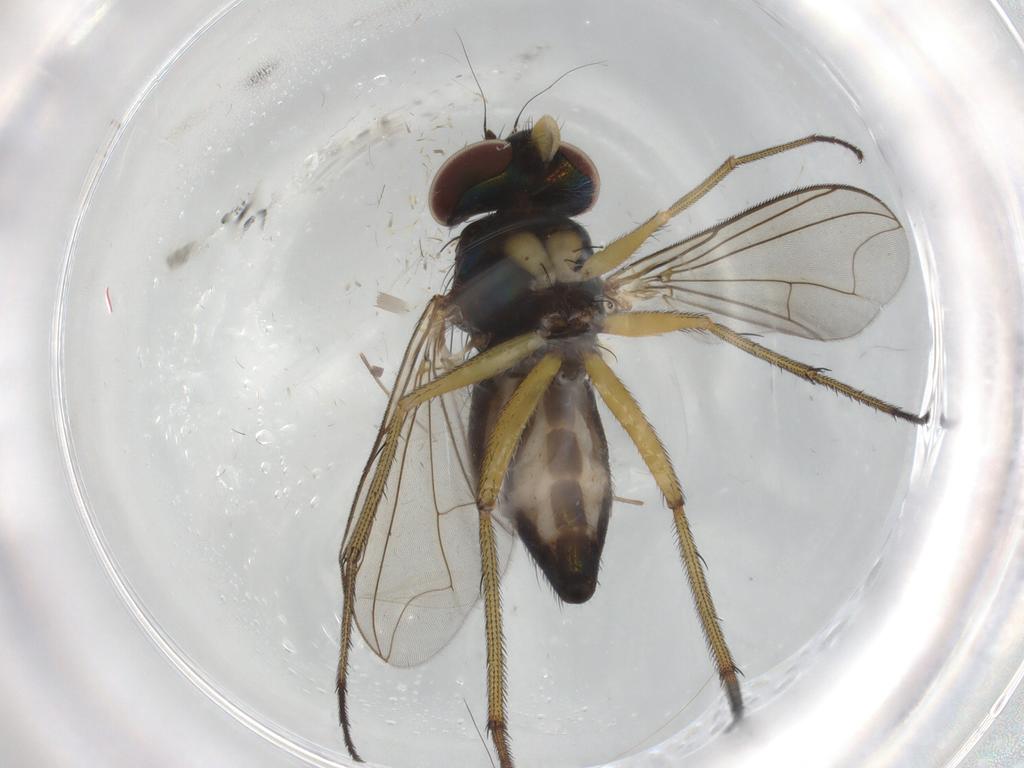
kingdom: Animalia
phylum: Arthropoda
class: Insecta
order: Diptera
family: Dolichopodidae
